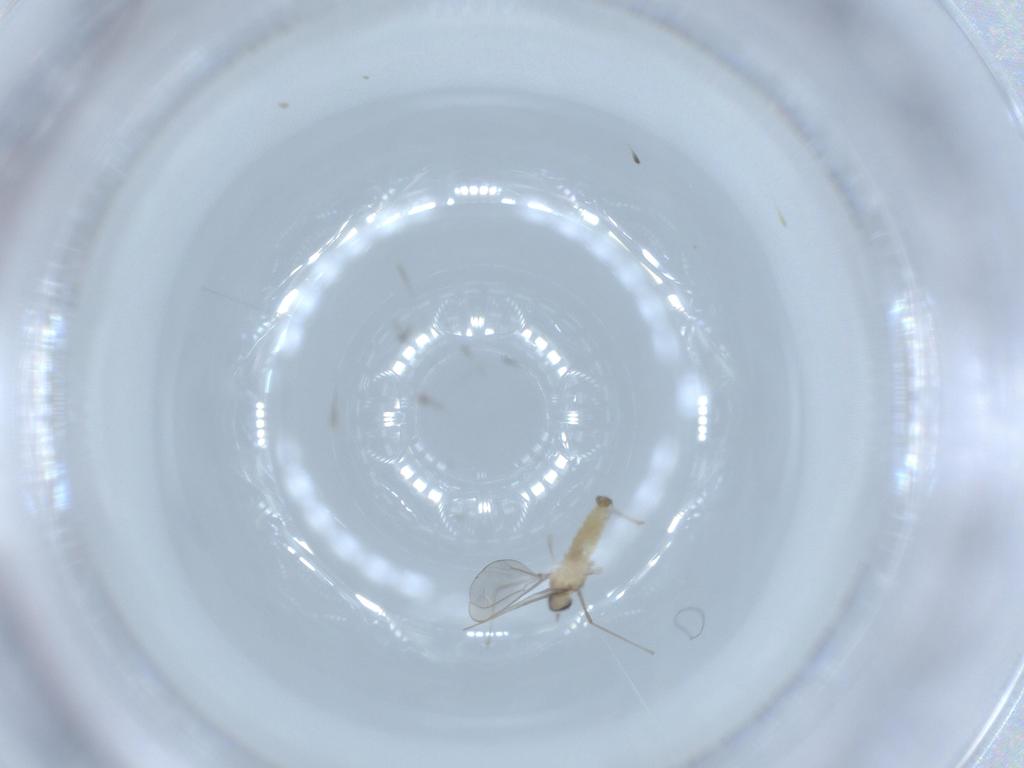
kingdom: Animalia
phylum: Arthropoda
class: Insecta
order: Diptera
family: Cecidomyiidae
